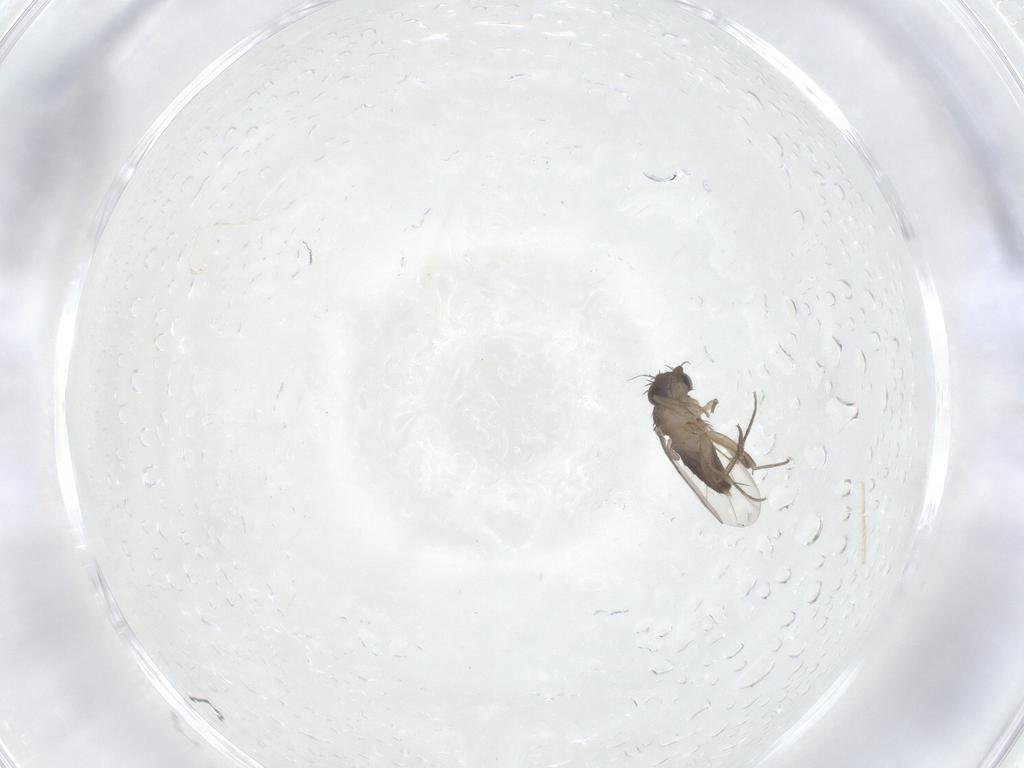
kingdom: Animalia
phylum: Arthropoda
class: Insecta
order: Diptera
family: Phoridae
